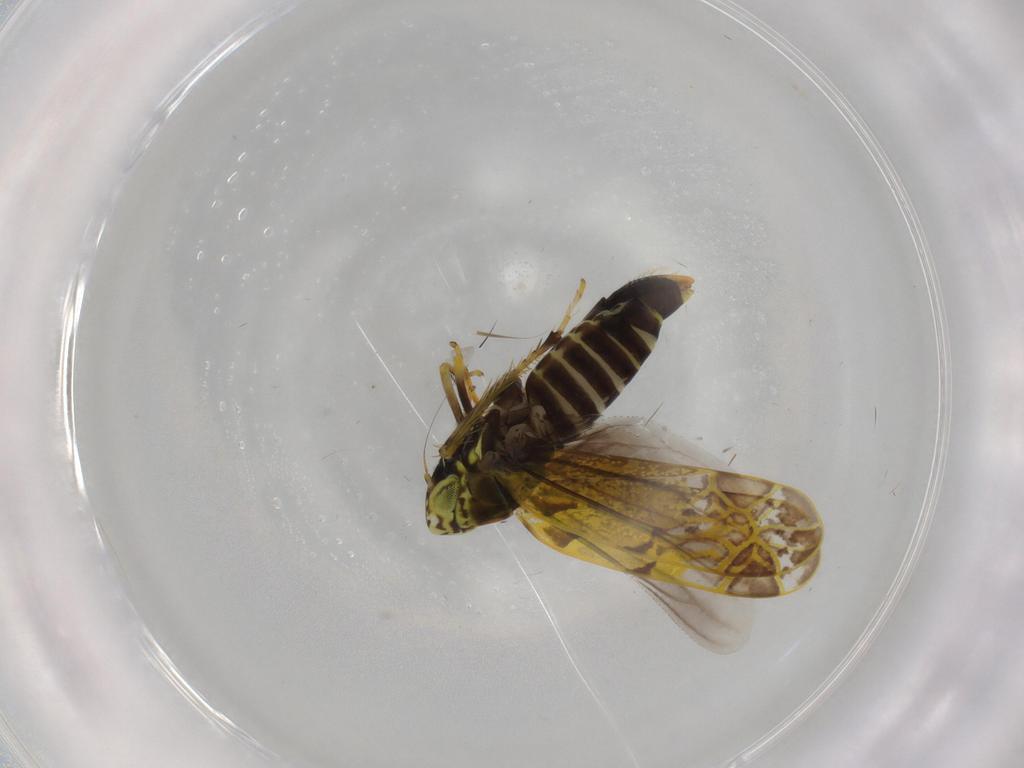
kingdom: Animalia
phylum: Arthropoda
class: Insecta
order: Hemiptera
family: Cicadellidae
